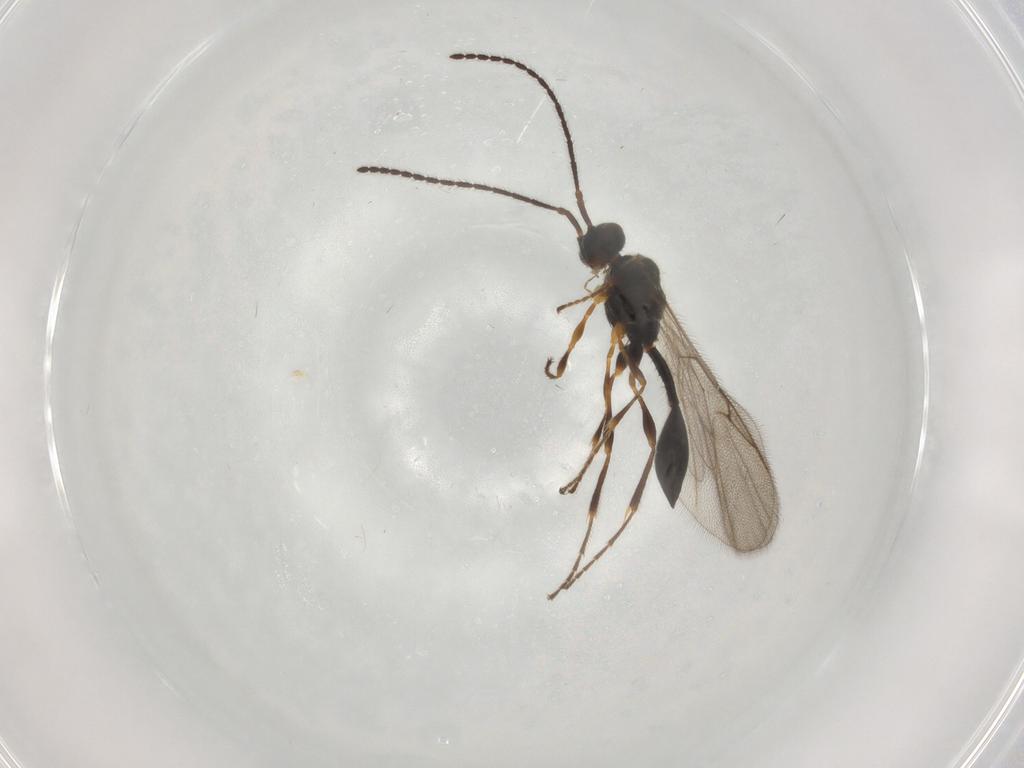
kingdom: Animalia
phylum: Arthropoda
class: Insecta
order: Hymenoptera
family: Diapriidae
